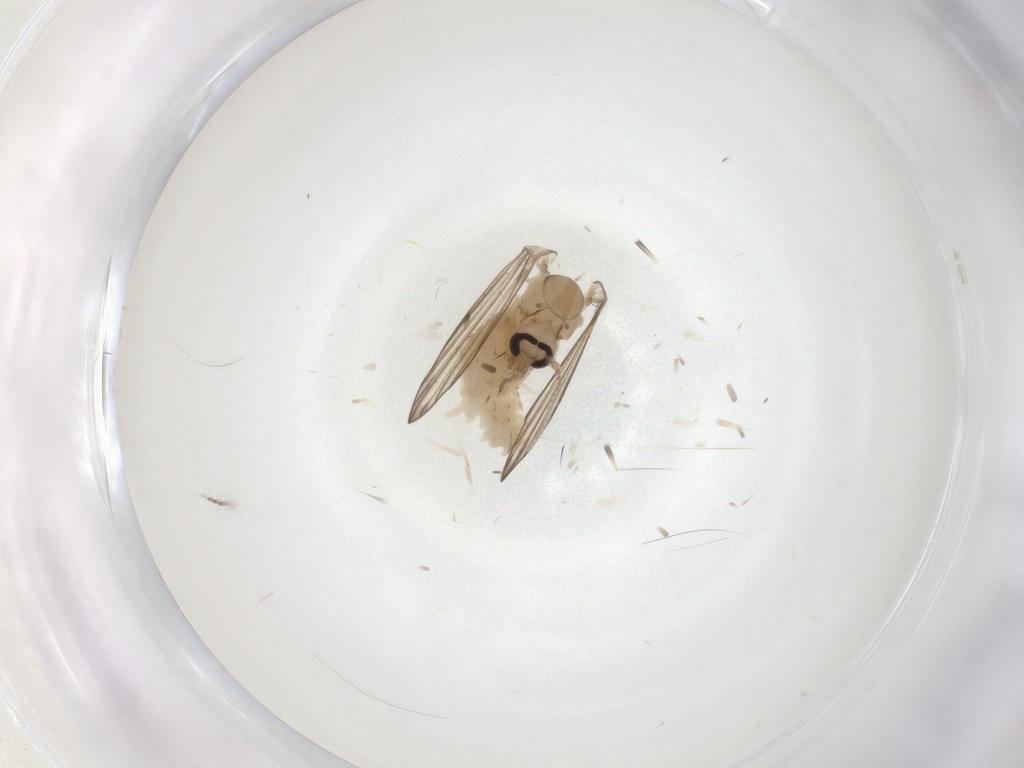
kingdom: Animalia
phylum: Arthropoda
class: Insecta
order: Diptera
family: Psychodidae
